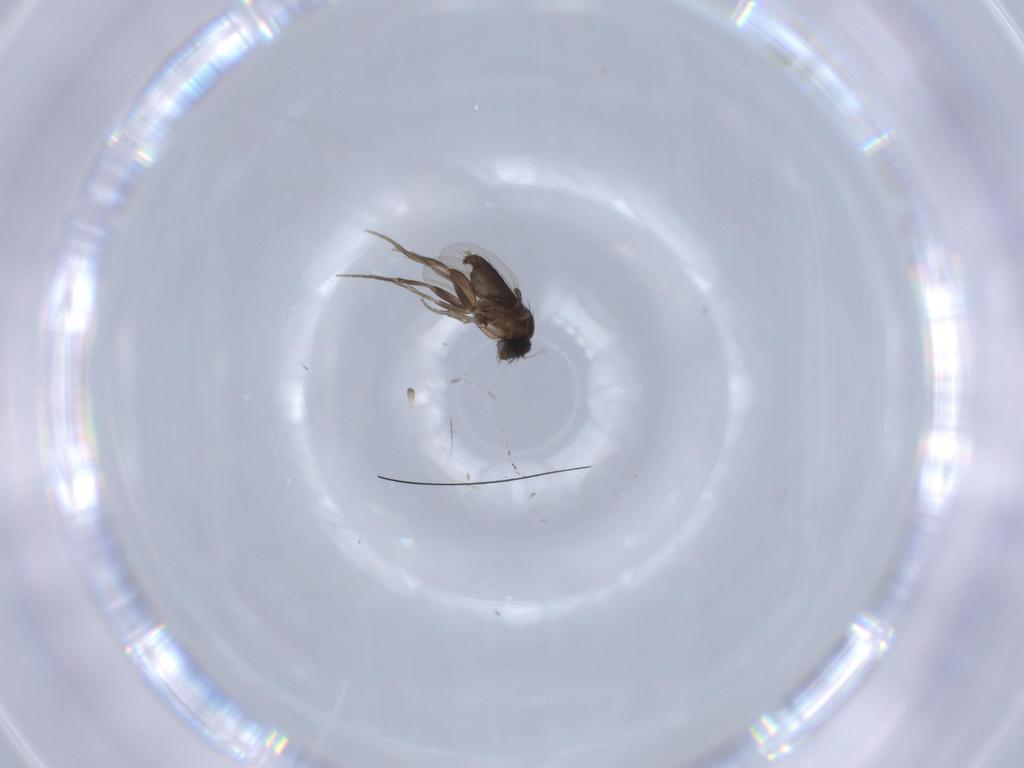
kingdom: Animalia
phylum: Arthropoda
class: Insecta
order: Diptera
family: Phoridae
